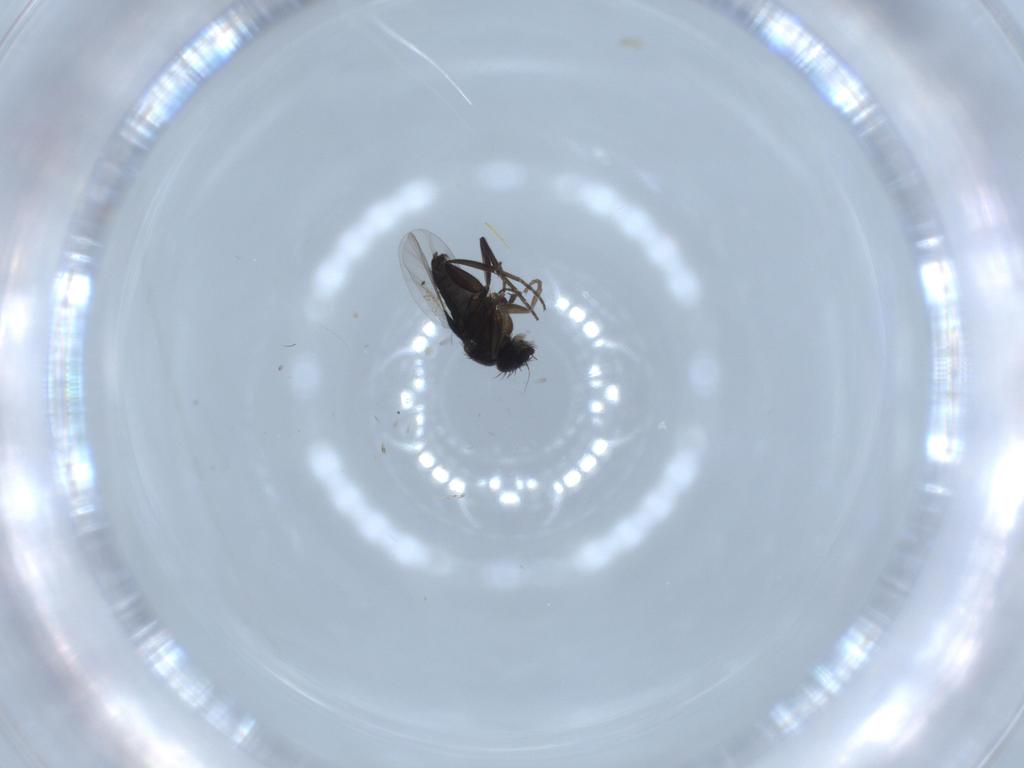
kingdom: Animalia
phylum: Arthropoda
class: Insecta
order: Diptera
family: Phoridae
